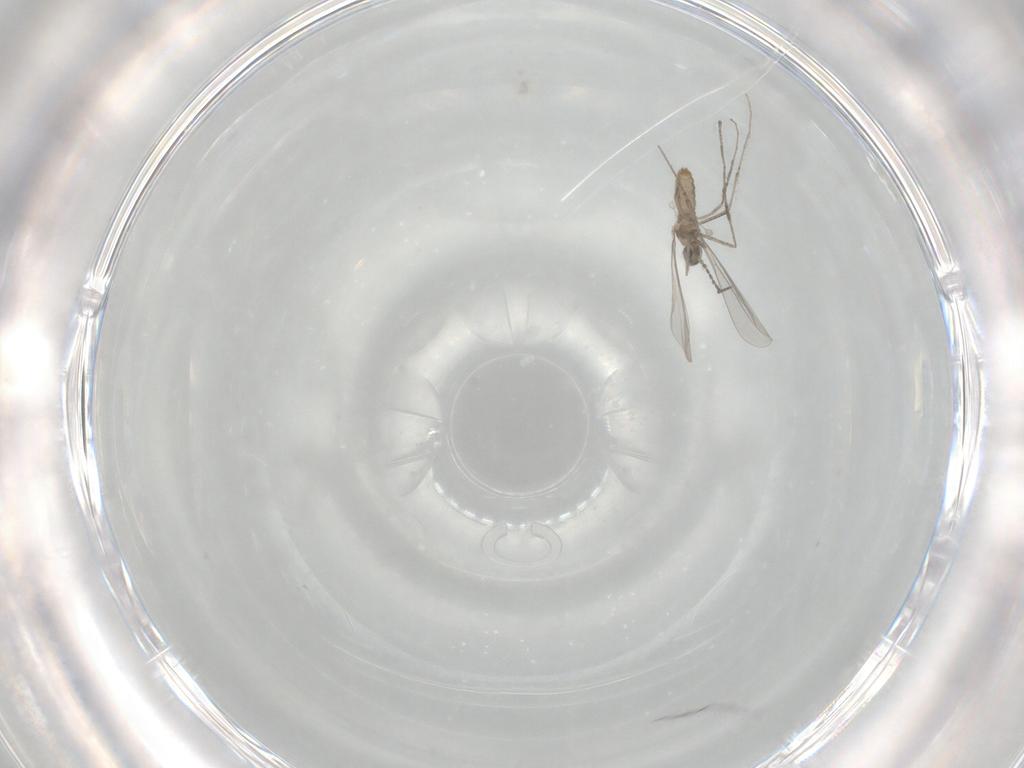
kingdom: Animalia
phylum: Arthropoda
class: Insecta
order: Diptera
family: Cecidomyiidae
